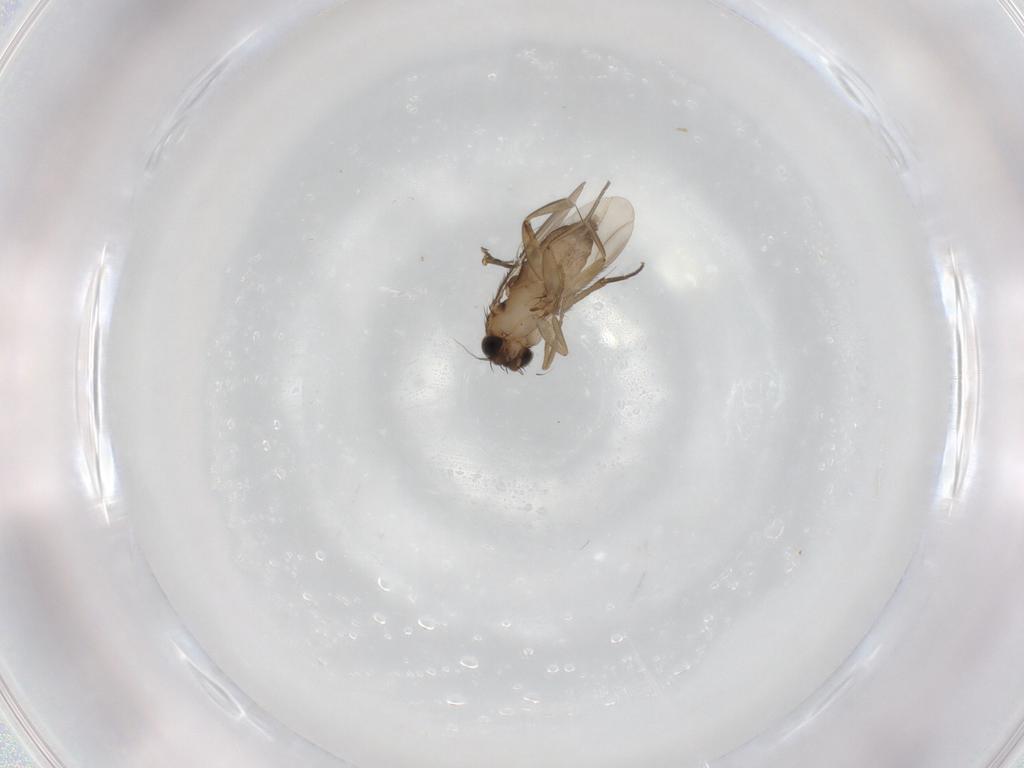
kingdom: Animalia
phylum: Arthropoda
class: Insecta
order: Diptera
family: Phoridae
